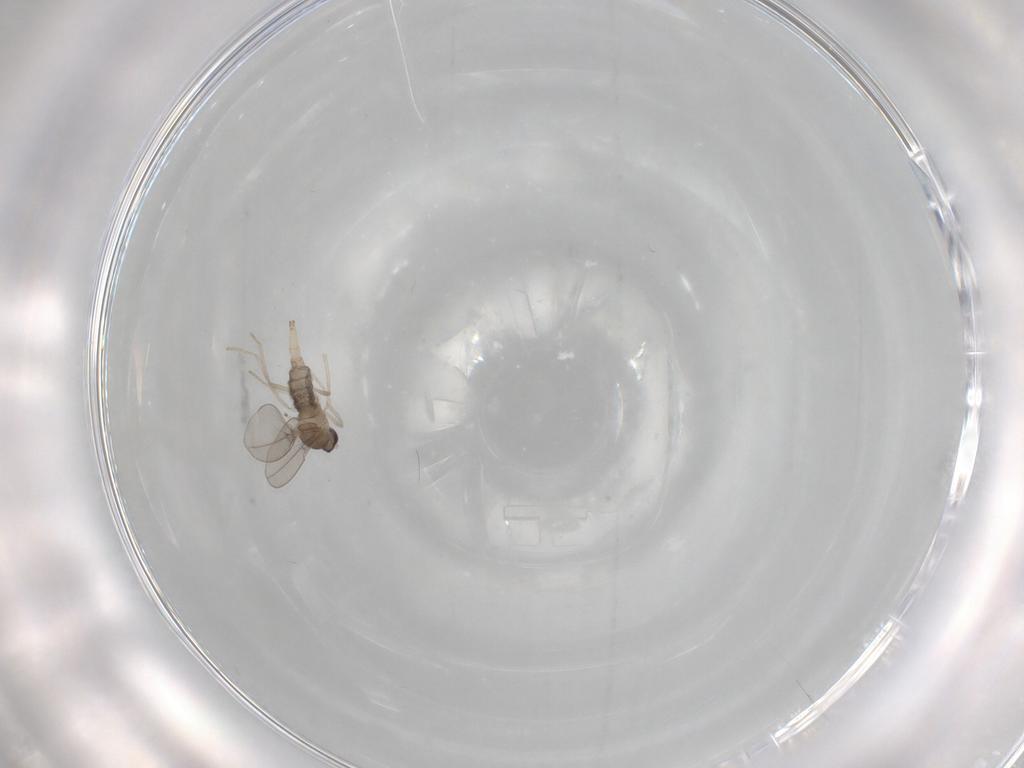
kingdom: Animalia
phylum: Arthropoda
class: Insecta
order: Diptera
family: Cecidomyiidae
